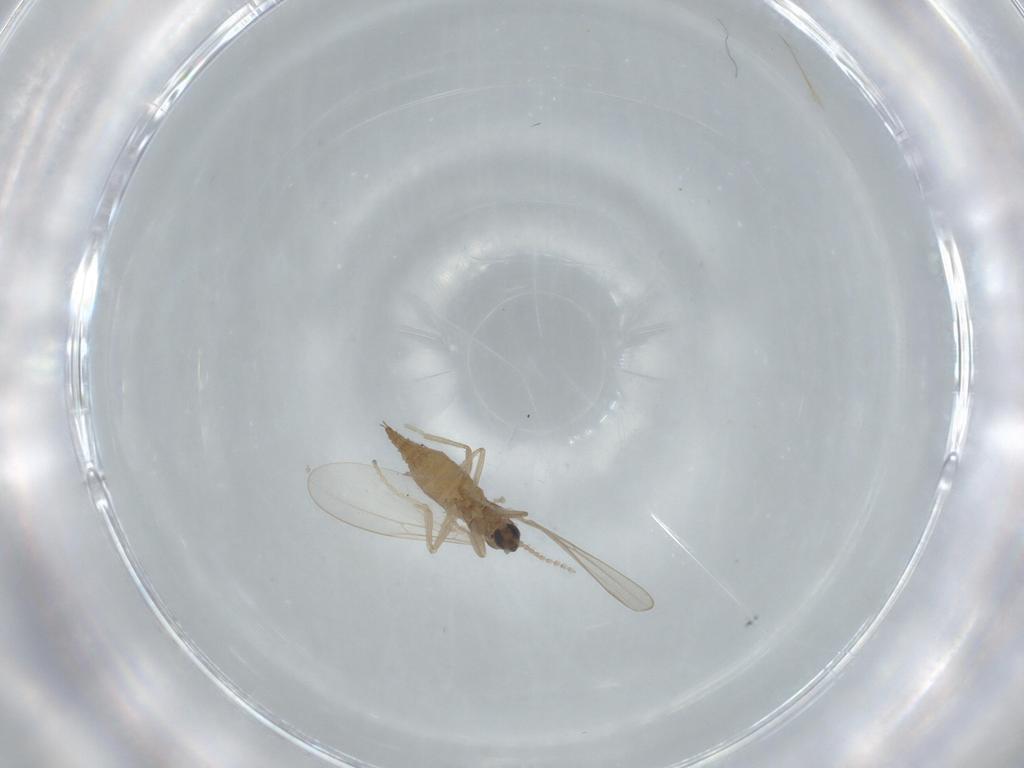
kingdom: Animalia
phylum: Arthropoda
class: Insecta
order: Diptera
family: Cecidomyiidae
